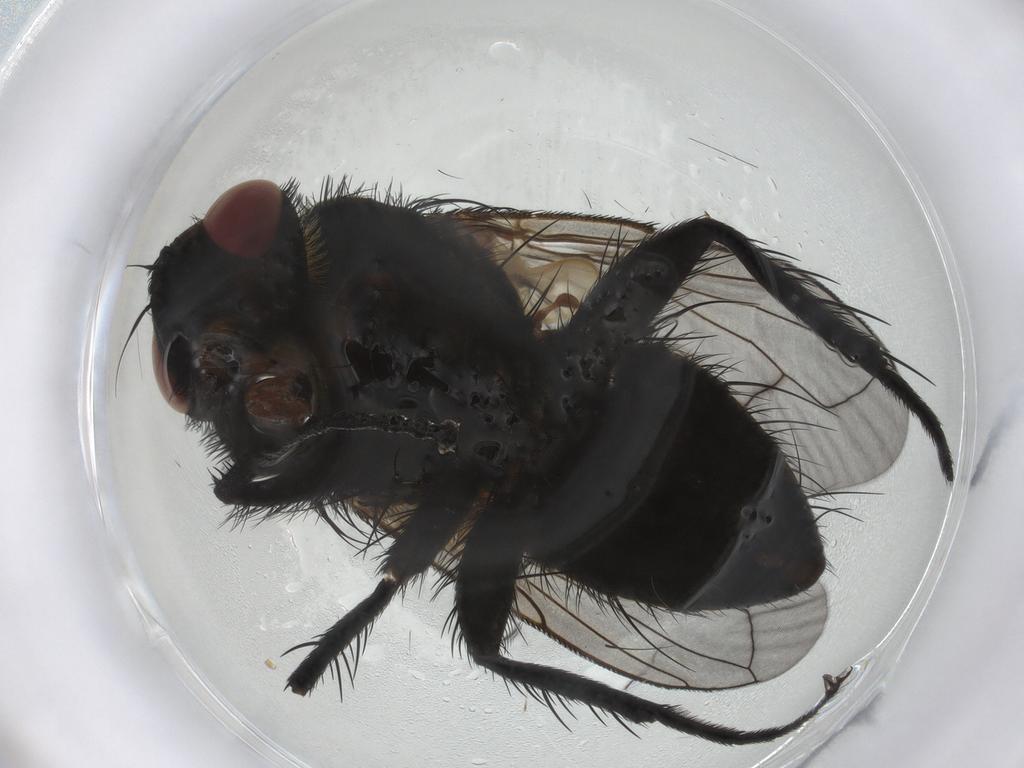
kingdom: Animalia
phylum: Arthropoda
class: Insecta
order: Diptera
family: Tachinidae
